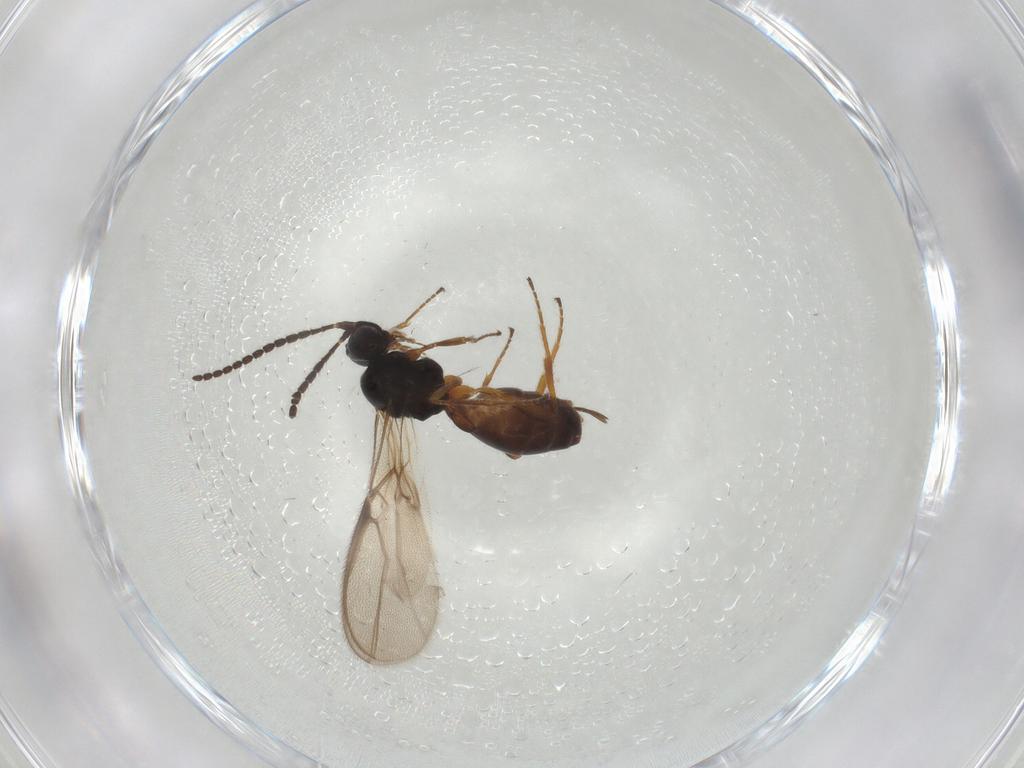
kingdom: Animalia
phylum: Arthropoda
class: Insecta
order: Hymenoptera
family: Braconidae
